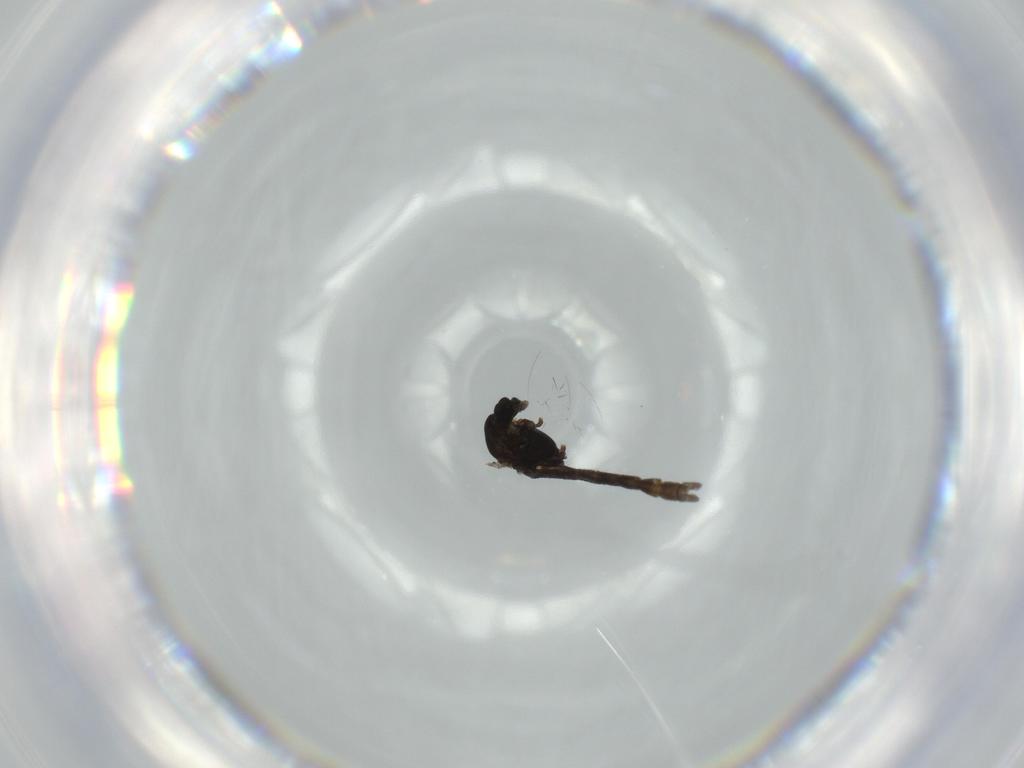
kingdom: Animalia
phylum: Arthropoda
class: Insecta
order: Diptera
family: Chironomidae
